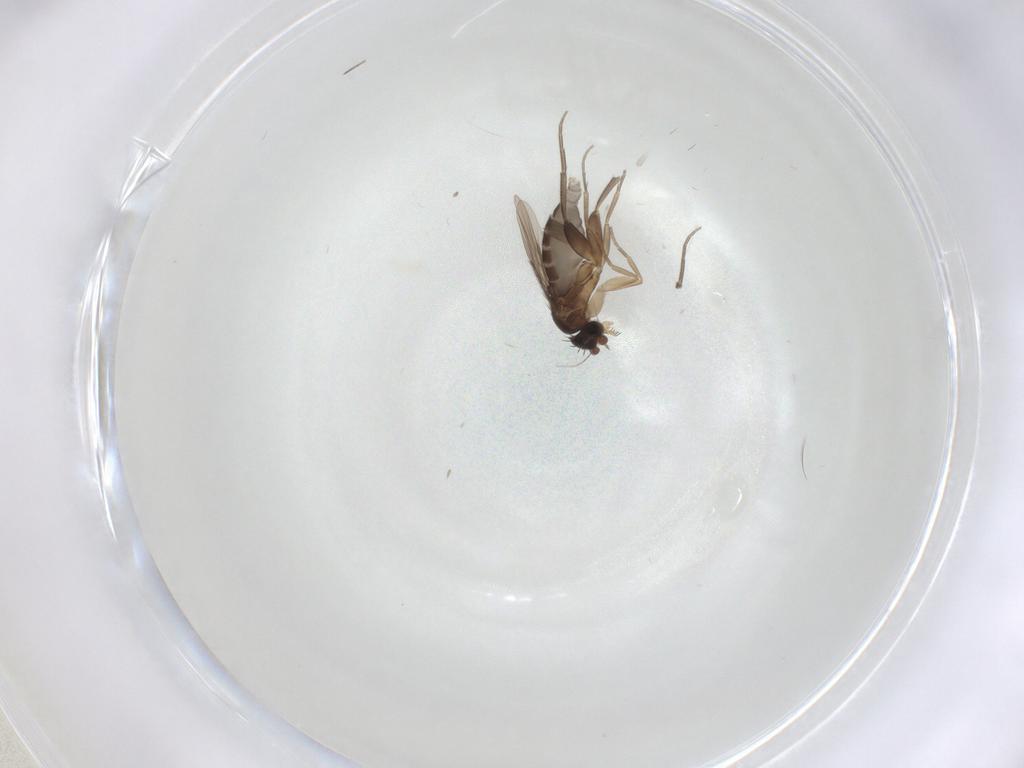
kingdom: Animalia
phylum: Arthropoda
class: Insecta
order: Diptera
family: Phoridae
